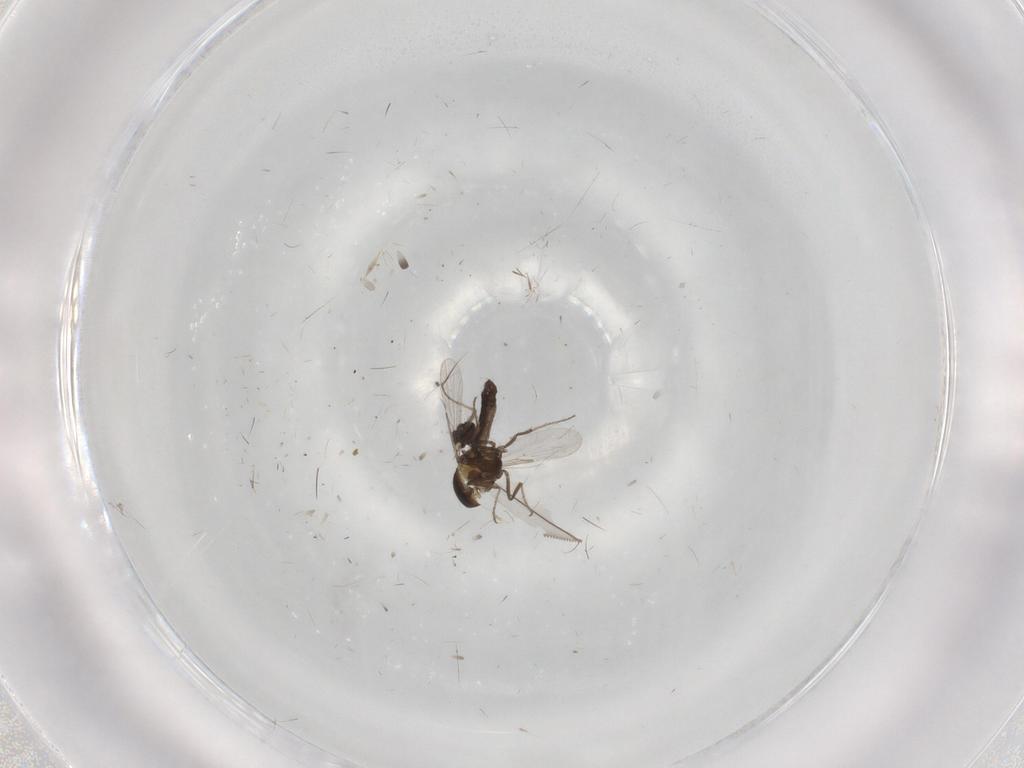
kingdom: Animalia
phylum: Arthropoda
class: Insecta
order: Diptera
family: Ceratopogonidae
